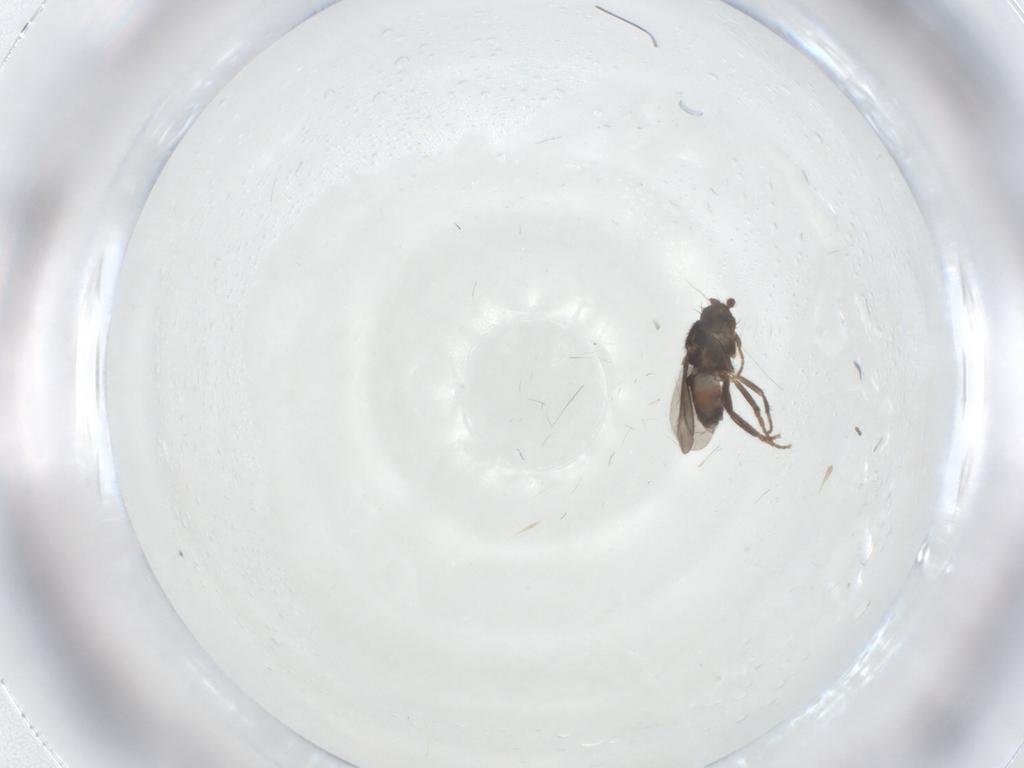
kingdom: Animalia
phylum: Arthropoda
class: Insecta
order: Diptera
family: Sphaeroceridae
